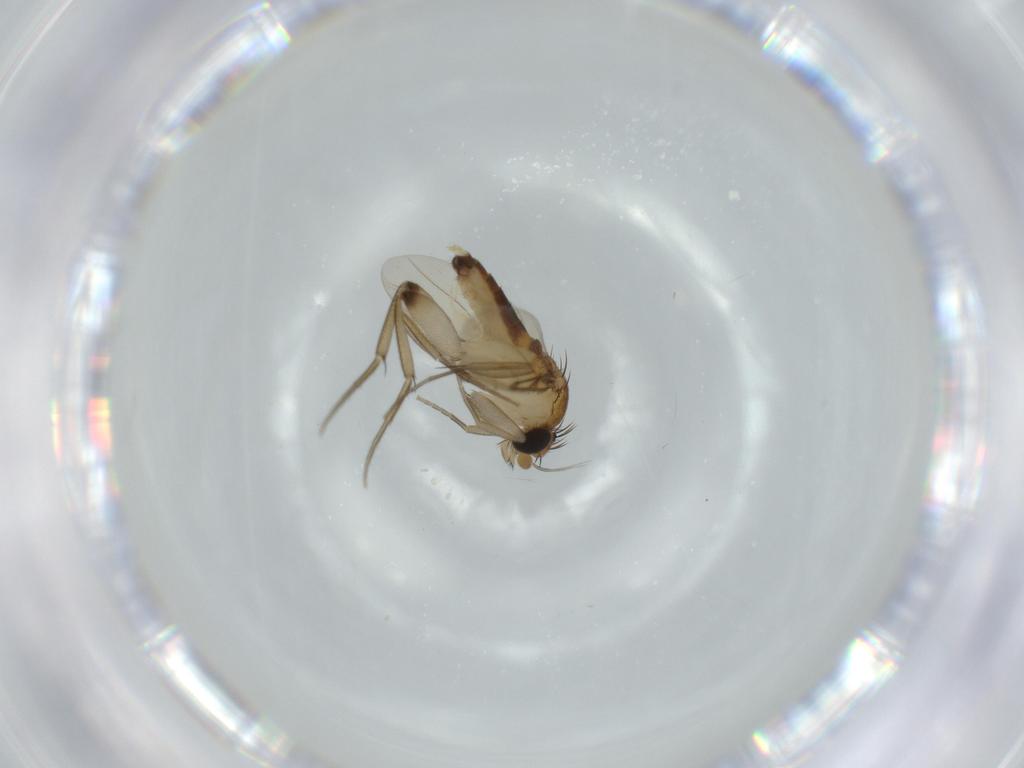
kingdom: Animalia
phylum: Arthropoda
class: Insecta
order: Diptera
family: Phoridae
